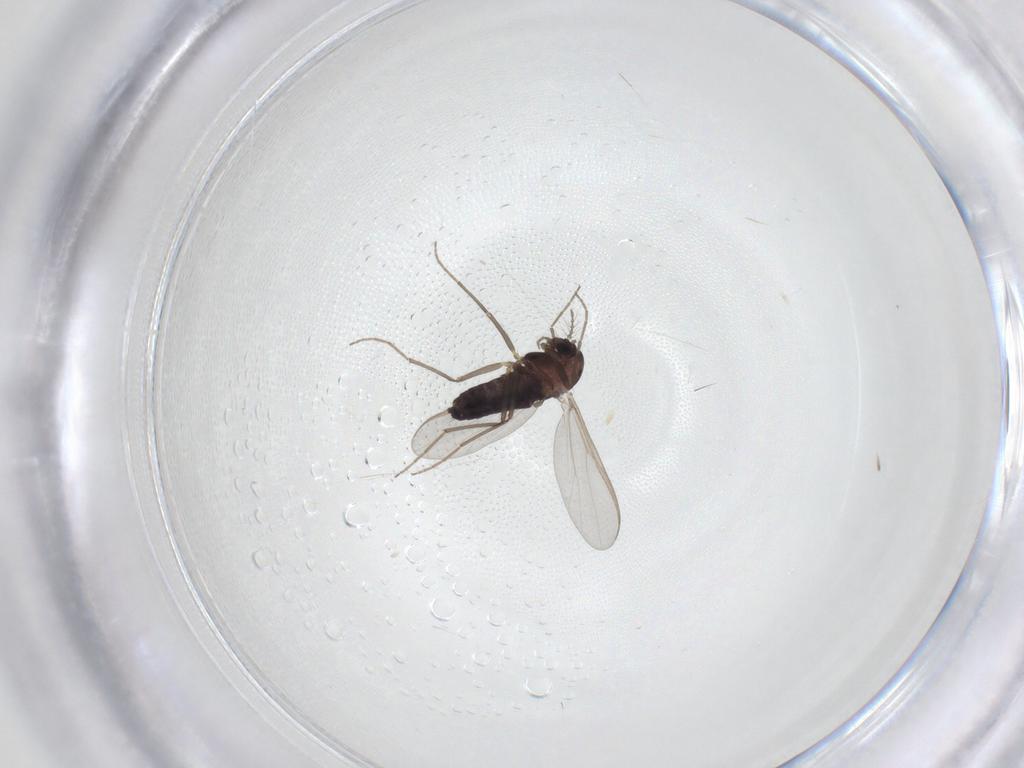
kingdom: Animalia
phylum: Arthropoda
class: Insecta
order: Diptera
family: Chironomidae
